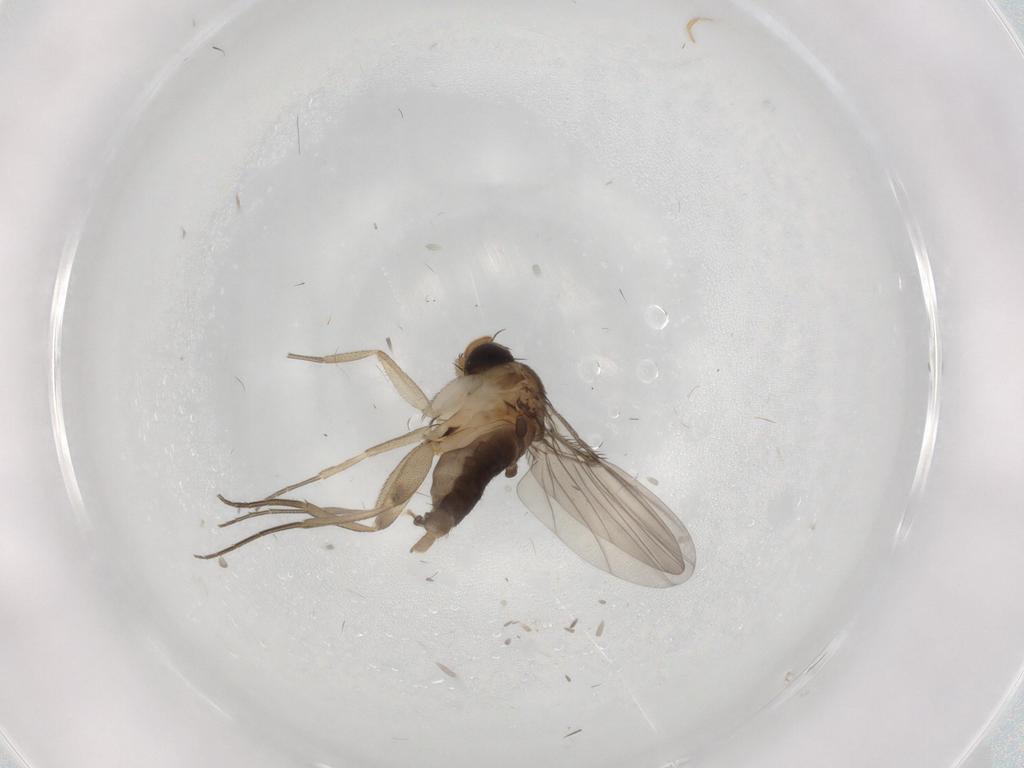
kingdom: Animalia
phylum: Arthropoda
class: Insecta
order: Diptera
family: Phoridae
